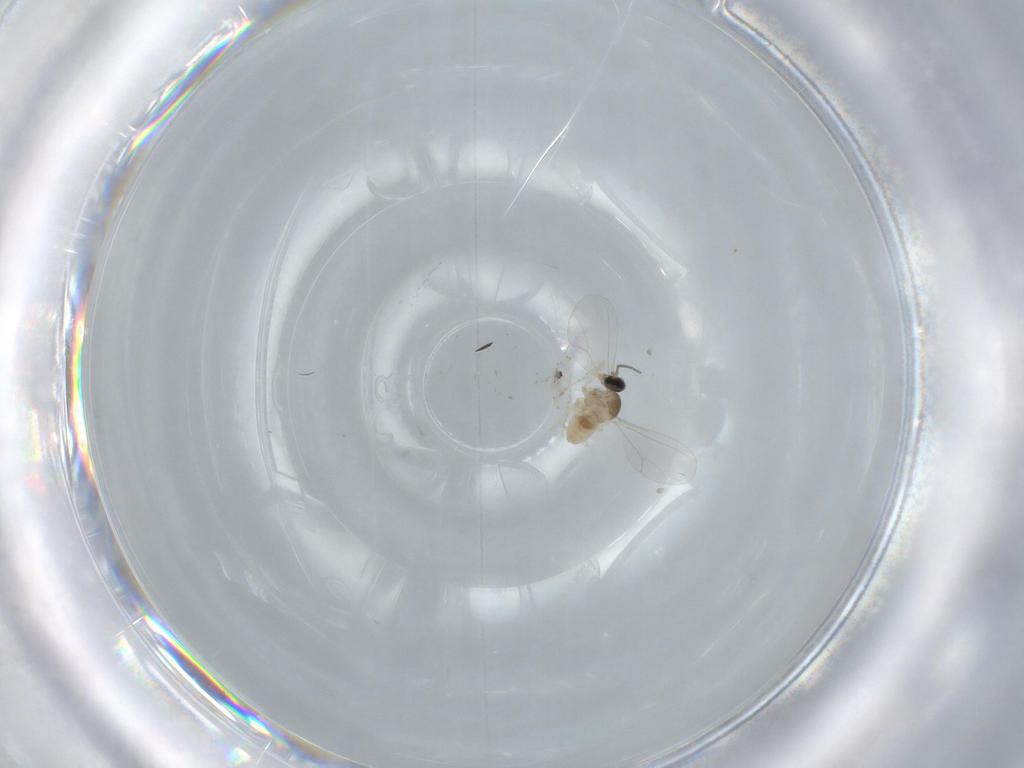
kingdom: Animalia
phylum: Arthropoda
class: Insecta
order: Diptera
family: Cecidomyiidae
